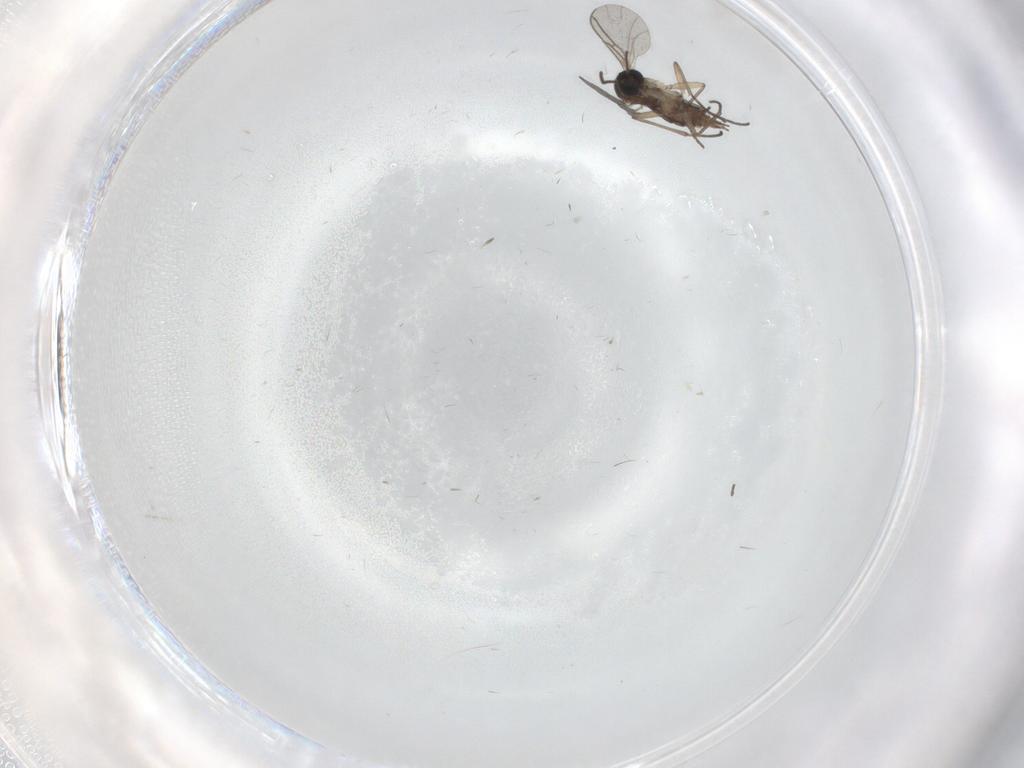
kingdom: Animalia
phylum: Arthropoda
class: Insecta
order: Diptera
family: Sciaridae
